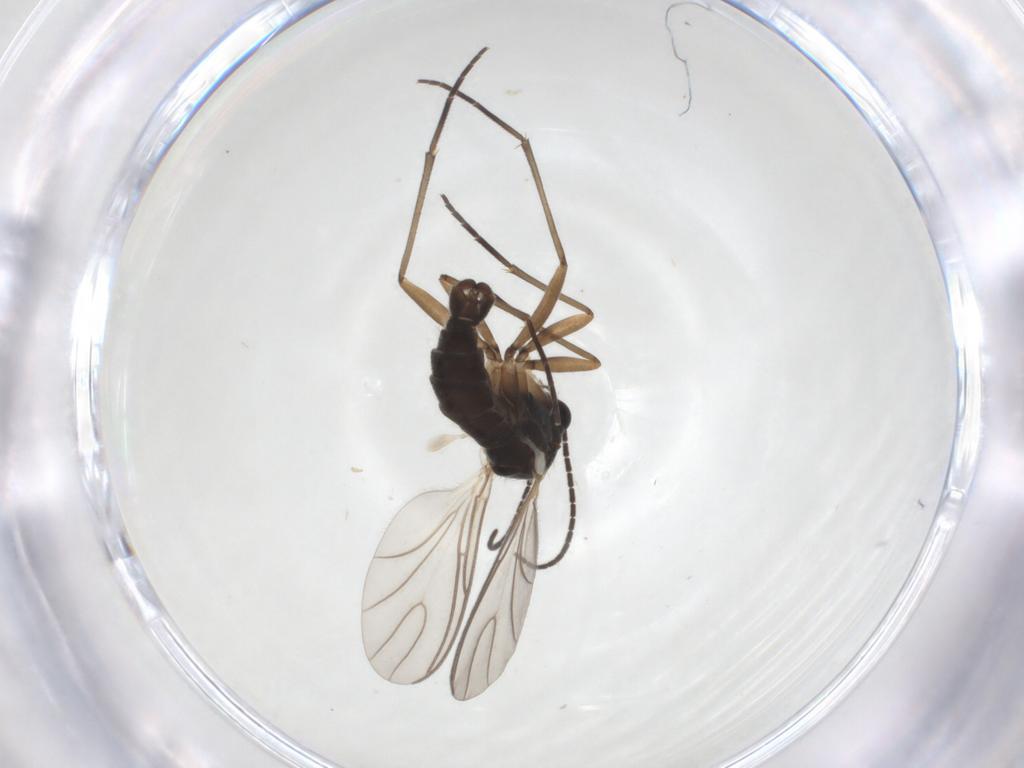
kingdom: Animalia
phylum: Arthropoda
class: Insecta
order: Diptera
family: Sciaridae
